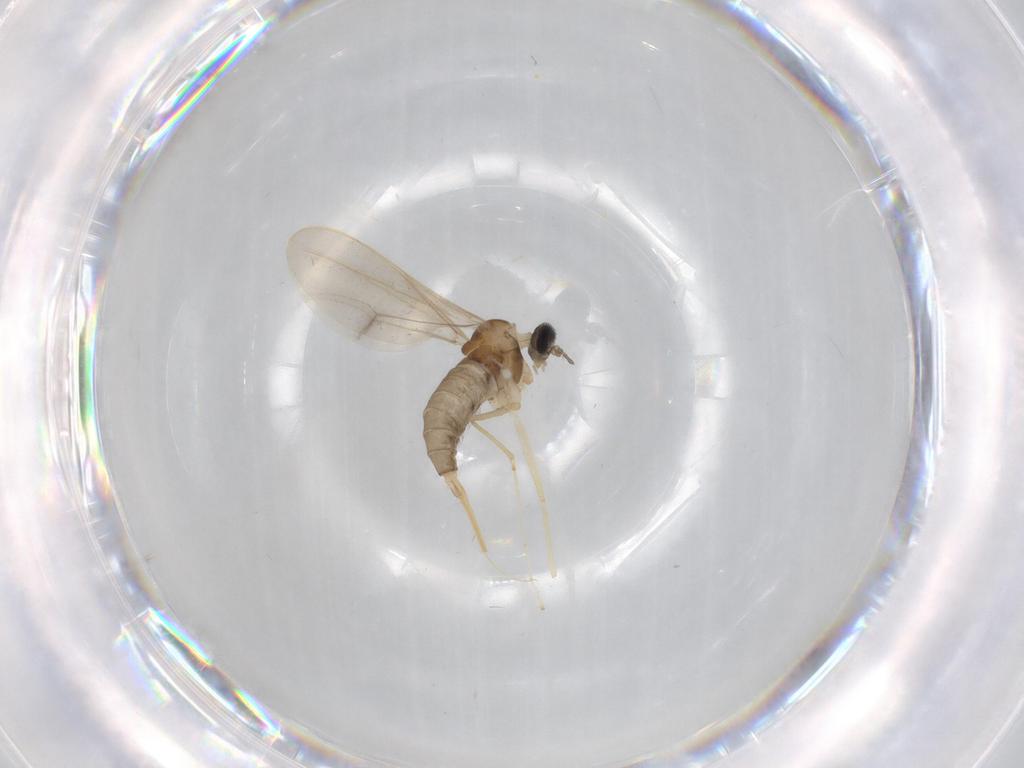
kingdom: Animalia
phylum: Arthropoda
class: Insecta
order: Diptera
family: Cecidomyiidae
